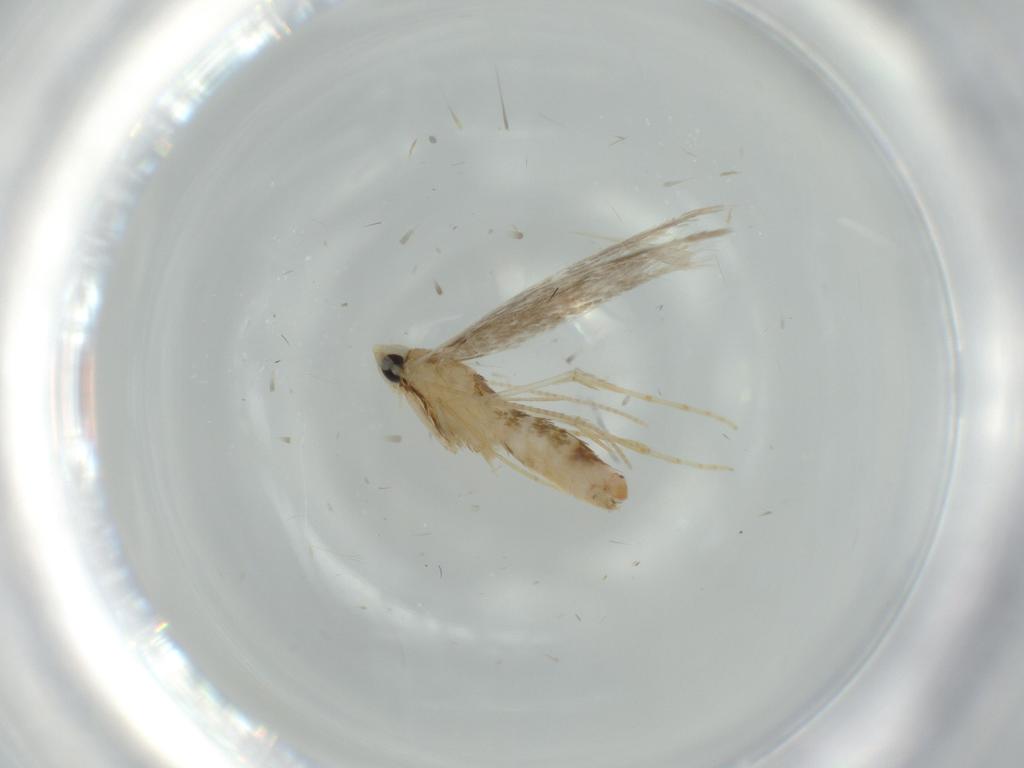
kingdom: Animalia
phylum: Arthropoda
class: Insecta
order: Lepidoptera
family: Tineidae
